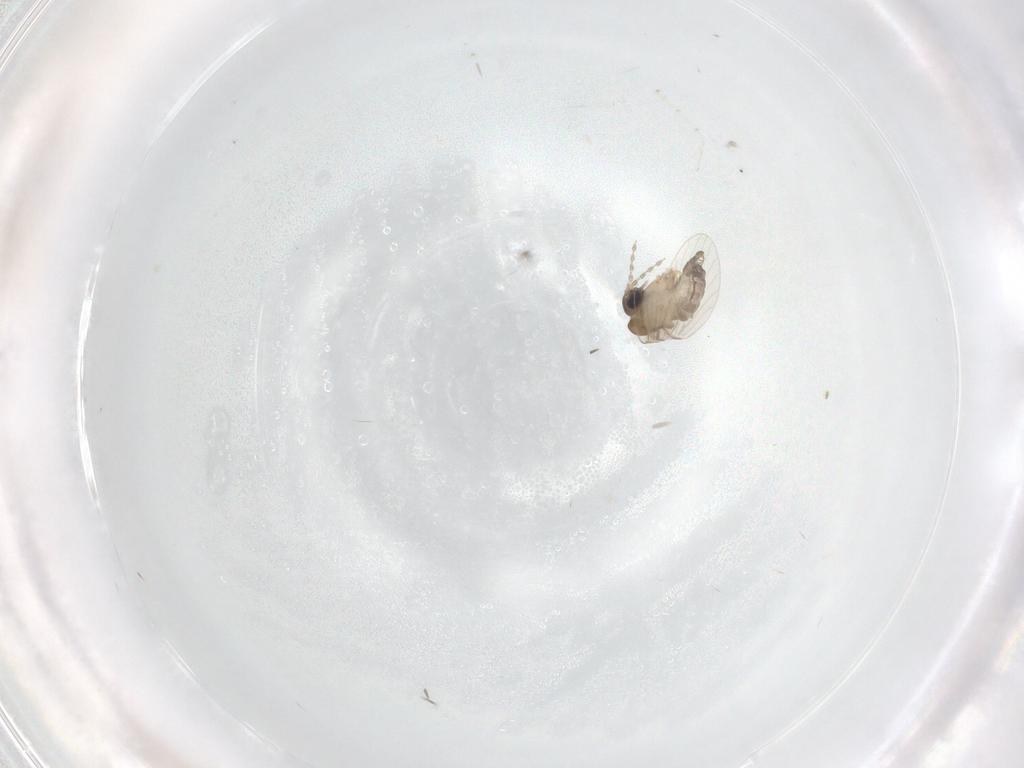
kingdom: Animalia
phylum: Arthropoda
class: Insecta
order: Diptera
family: Cecidomyiidae
